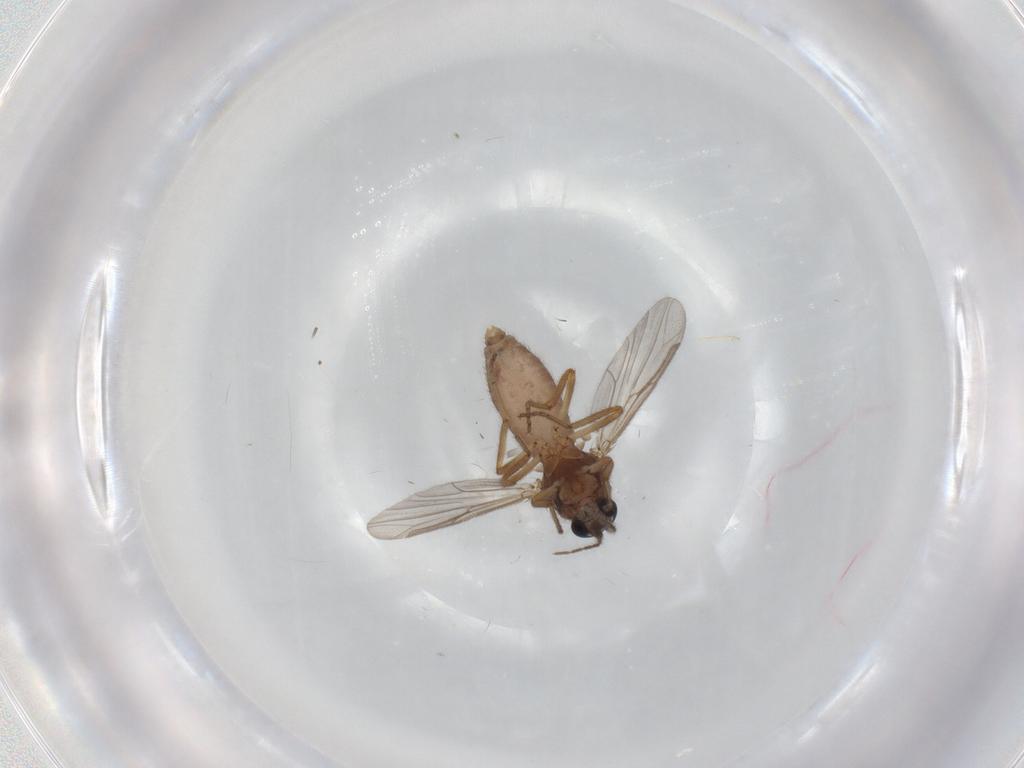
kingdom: Animalia
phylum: Arthropoda
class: Insecta
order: Diptera
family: Ceratopogonidae
